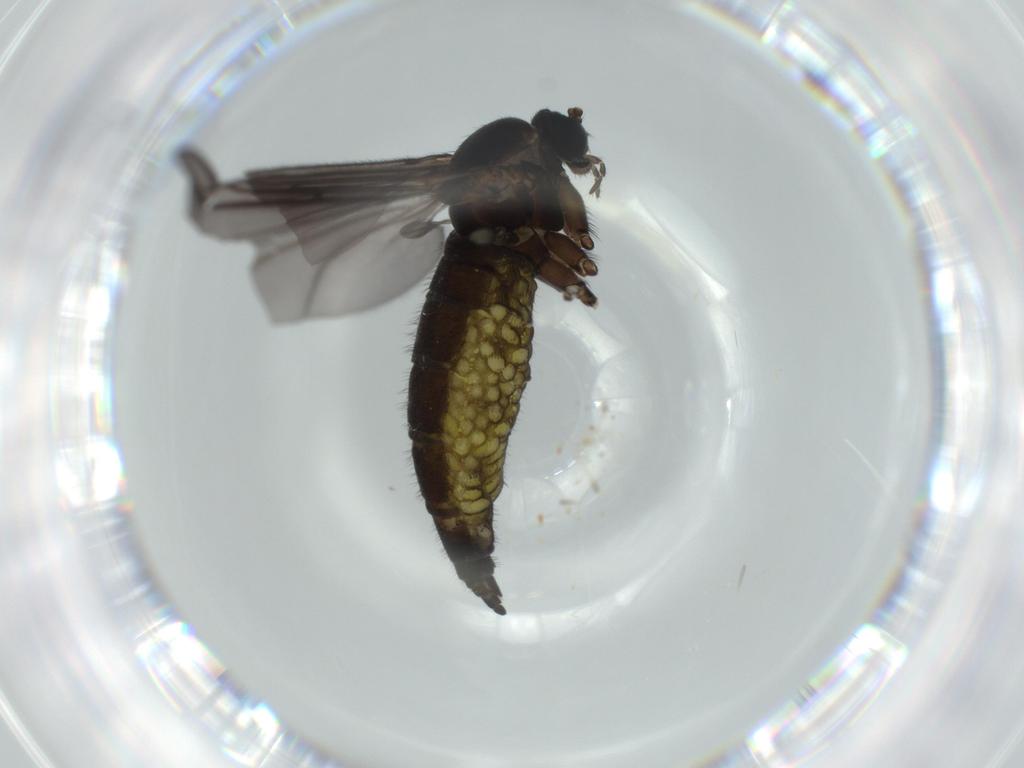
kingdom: Animalia
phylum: Arthropoda
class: Insecta
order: Diptera
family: Sciaridae
